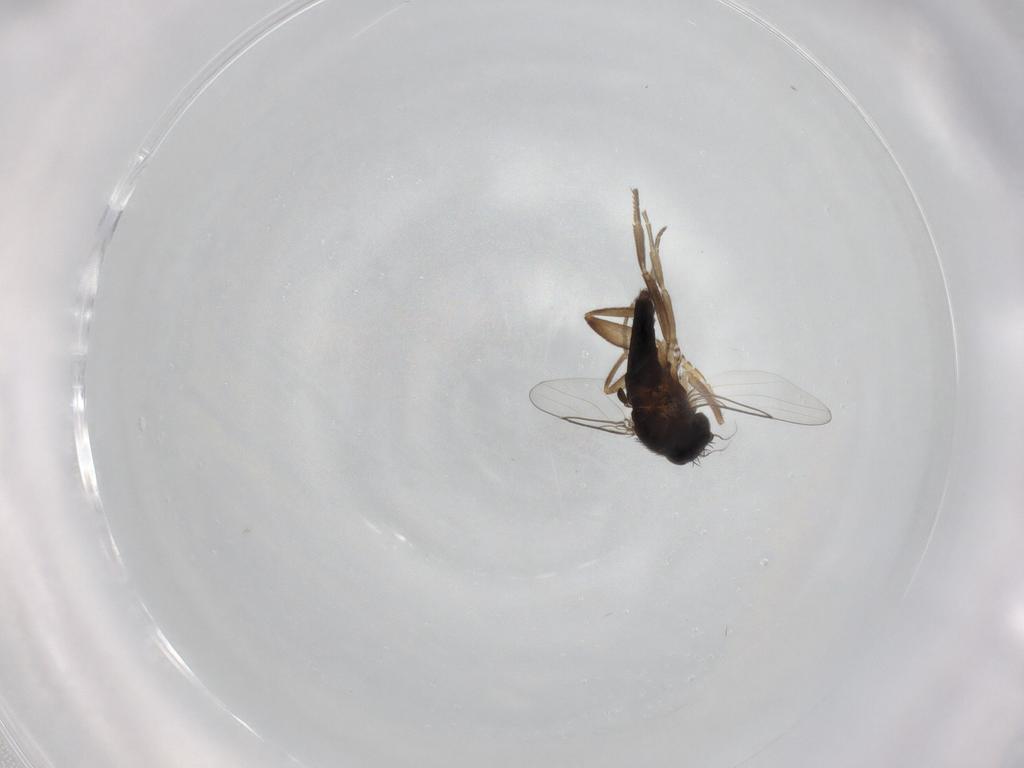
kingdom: Animalia
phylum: Arthropoda
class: Insecta
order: Diptera
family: Phoridae
